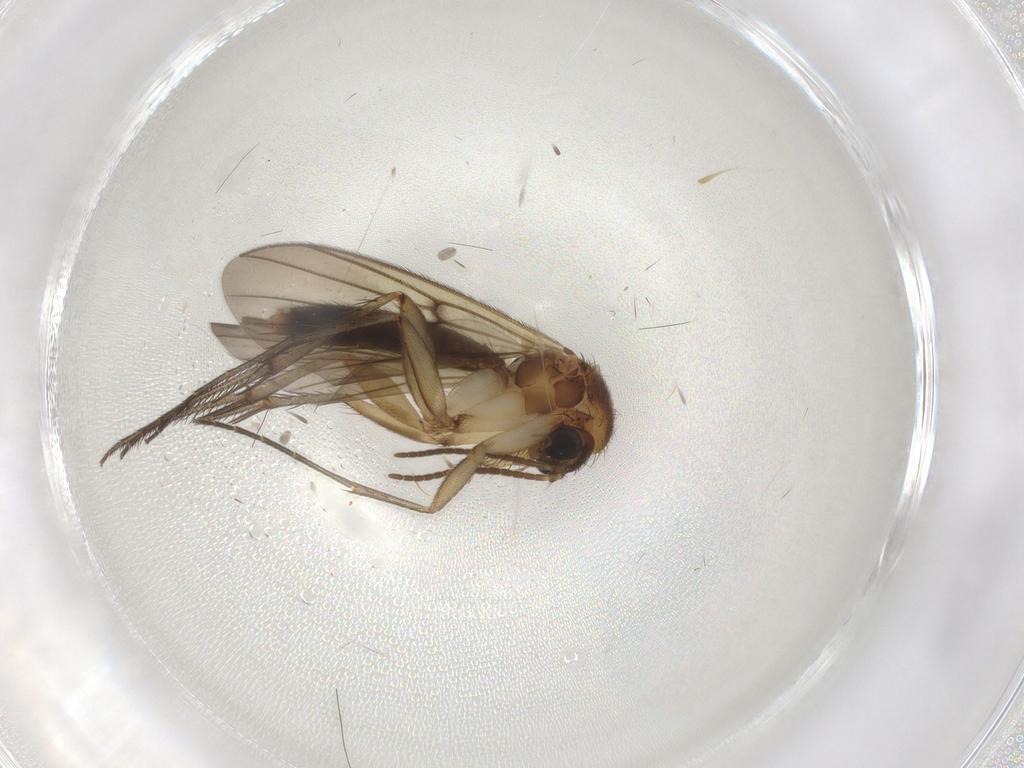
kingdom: Animalia
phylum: Arthropoda
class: Insecta
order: Diptera
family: Mycetophilidae
